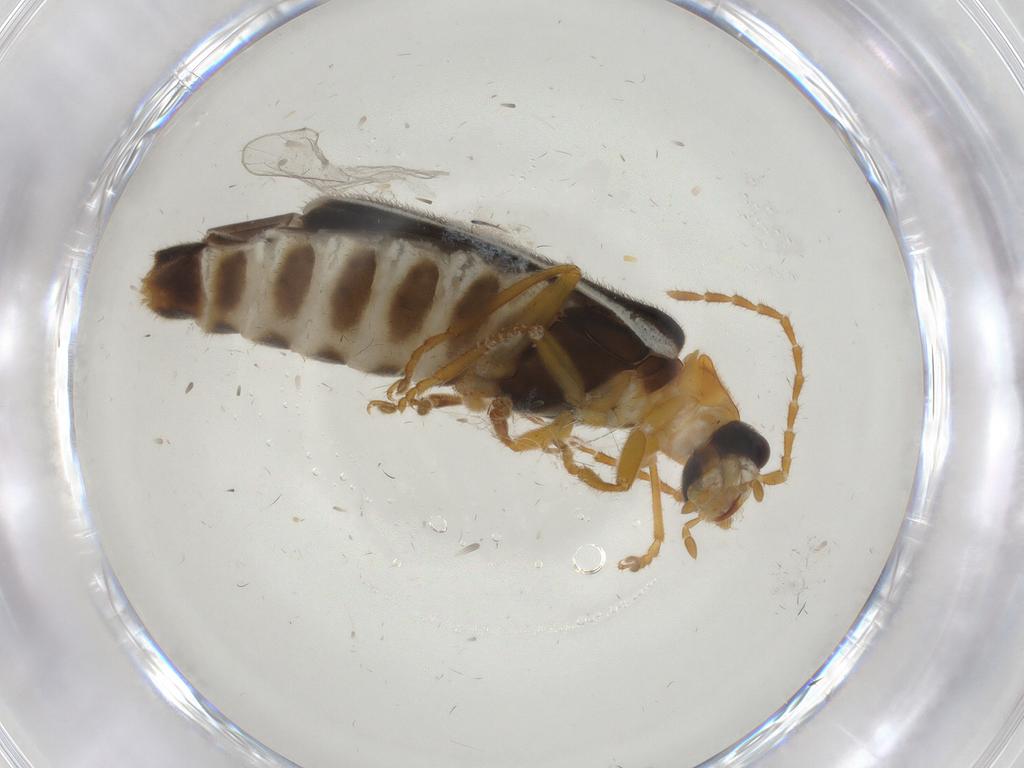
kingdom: Animalia
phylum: Arthropoda
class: Insecta
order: Coleoptera
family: Cantharidae
